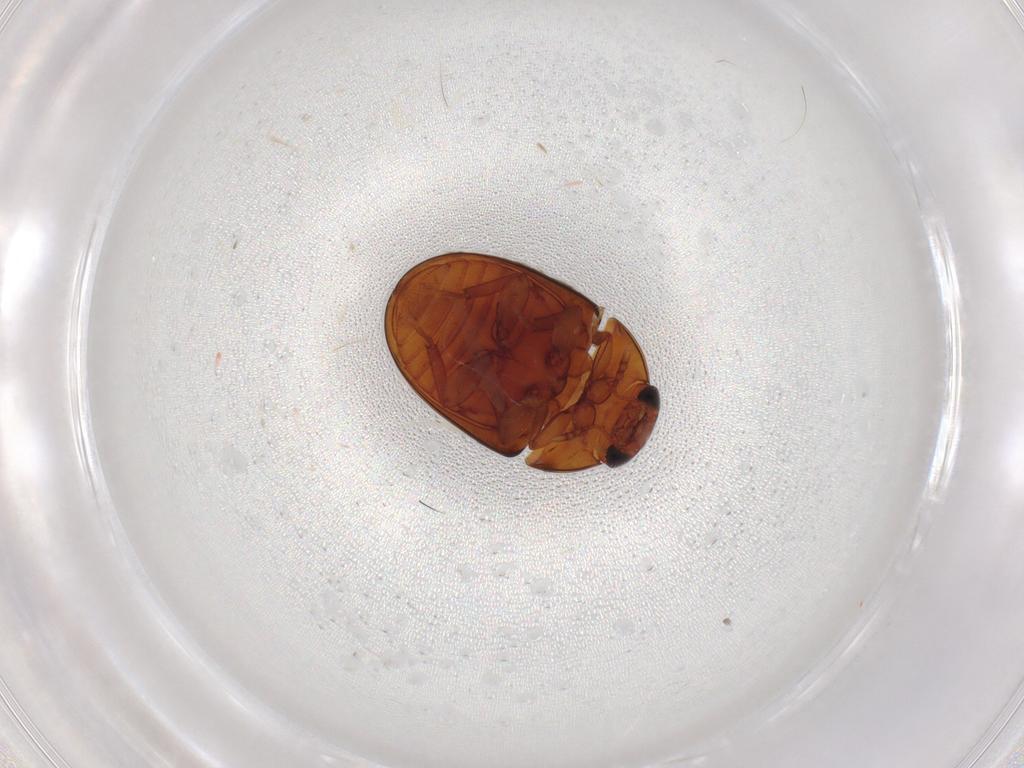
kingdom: Animalia
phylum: Arthropoda
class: Insecta
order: Coleoptera
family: Phalacridae
